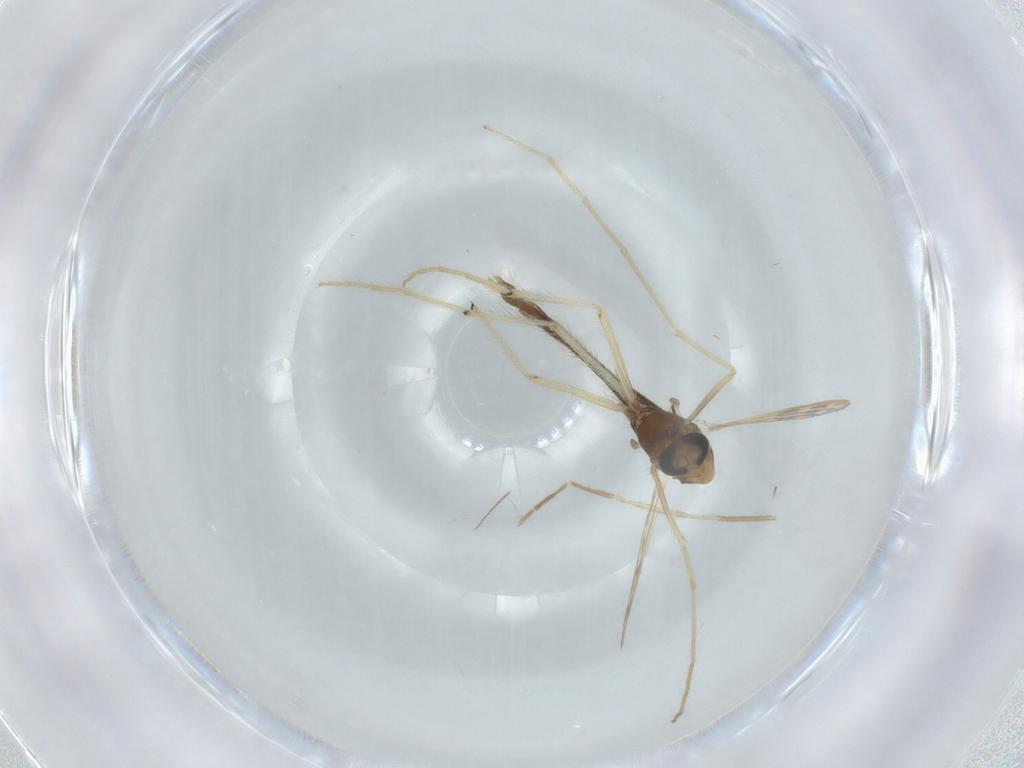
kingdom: Animalia
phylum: Arthropoda
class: Insecta
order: Diptera
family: Chironomidae
